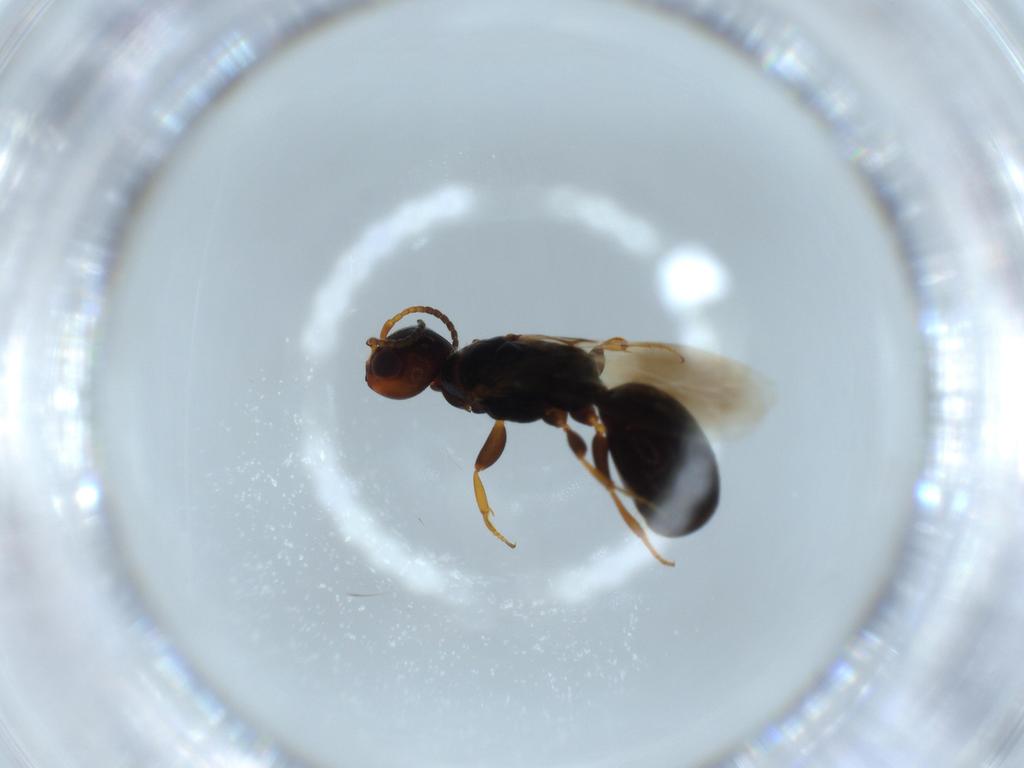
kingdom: Animalia
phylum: Arthropoda
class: Insecta
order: Hymenoptera
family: Bethylidae
